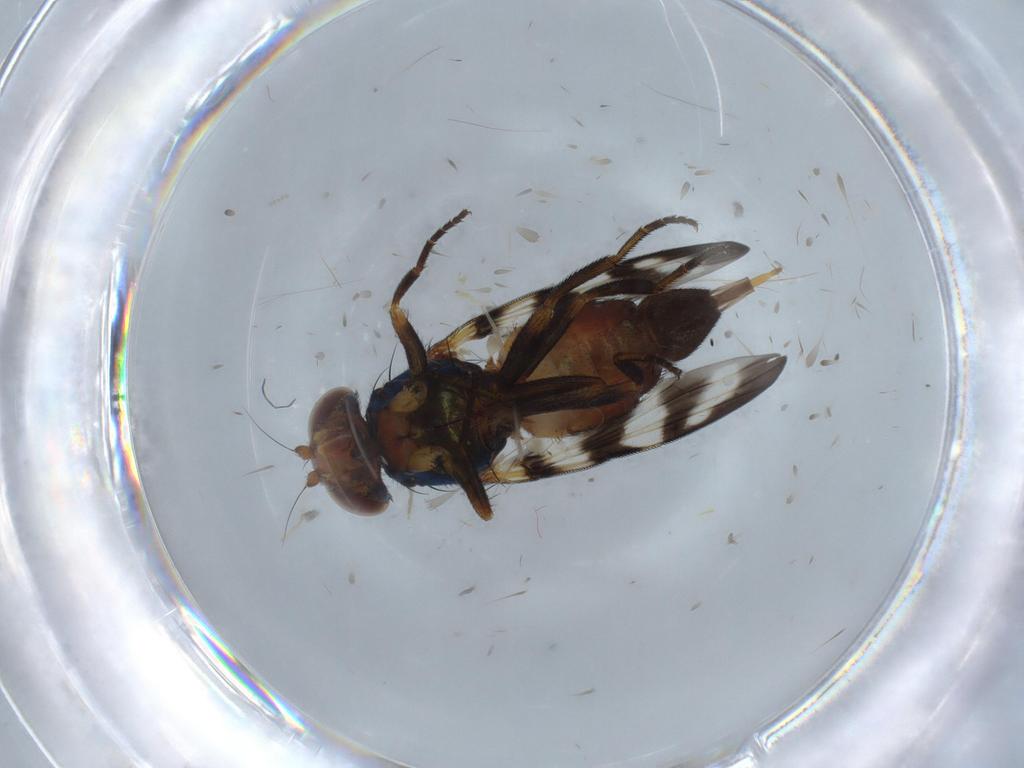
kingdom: Animalia
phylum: Arthropoda
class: Insecta
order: Diptera
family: Psychodidae
